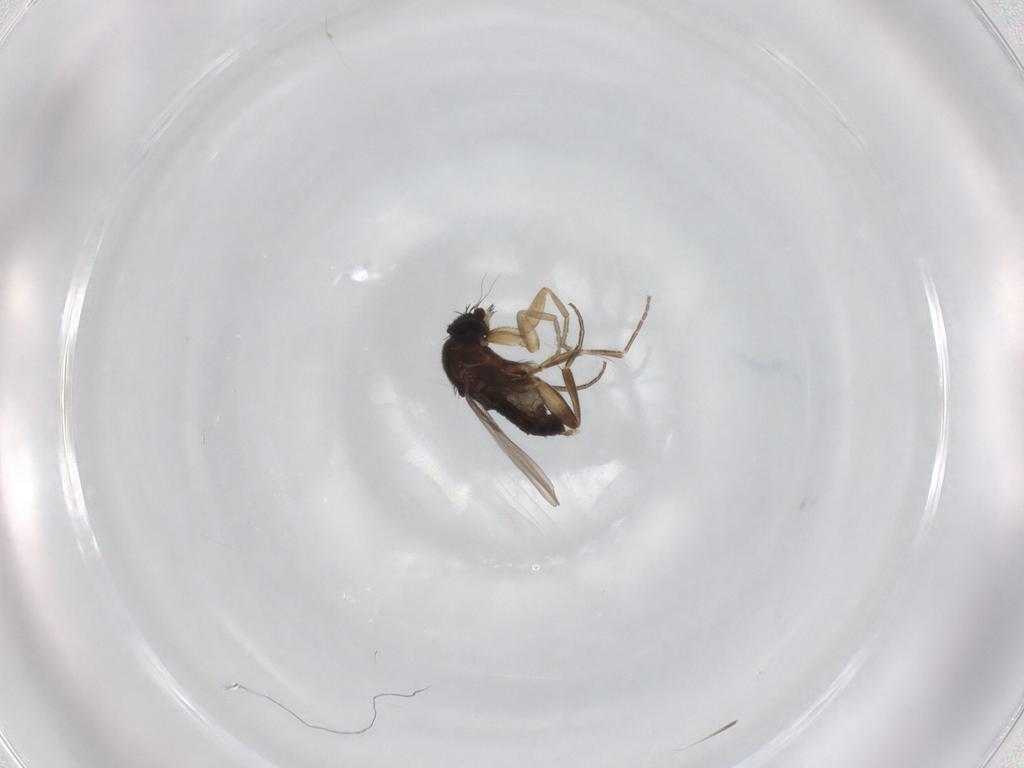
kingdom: Animalia
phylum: Arthropoda
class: Insecta
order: Diptera
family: Phoridae
